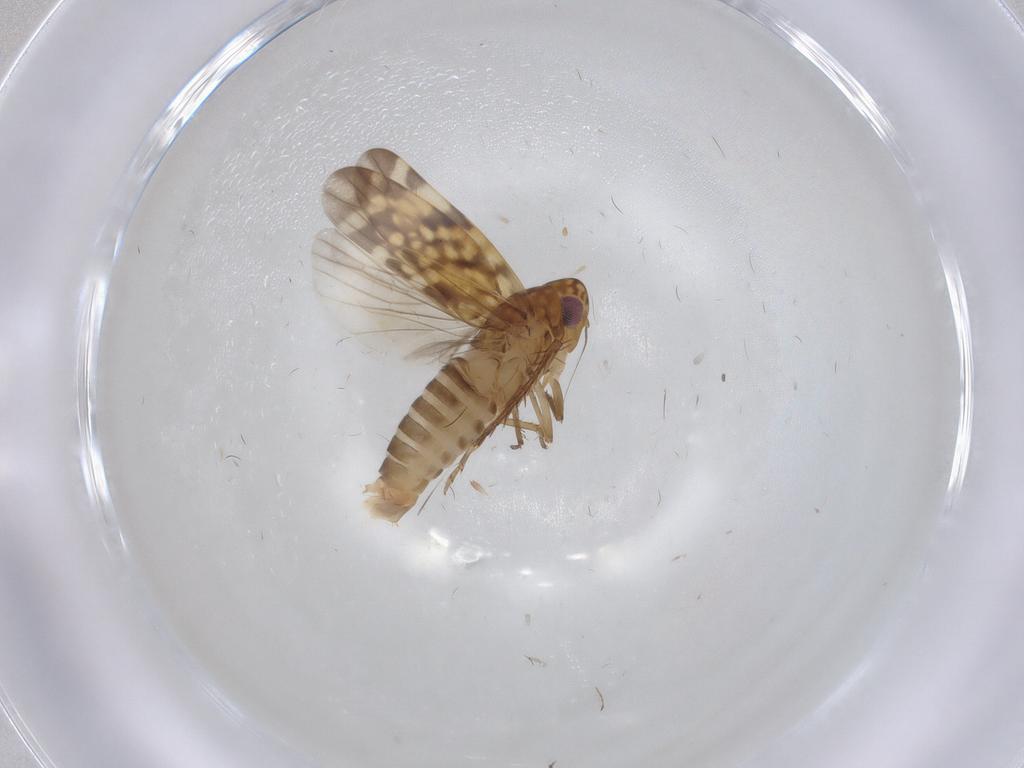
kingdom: Animalia
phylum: Arthropoda
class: Insecta
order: Hemiptera
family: Cicadellidae
